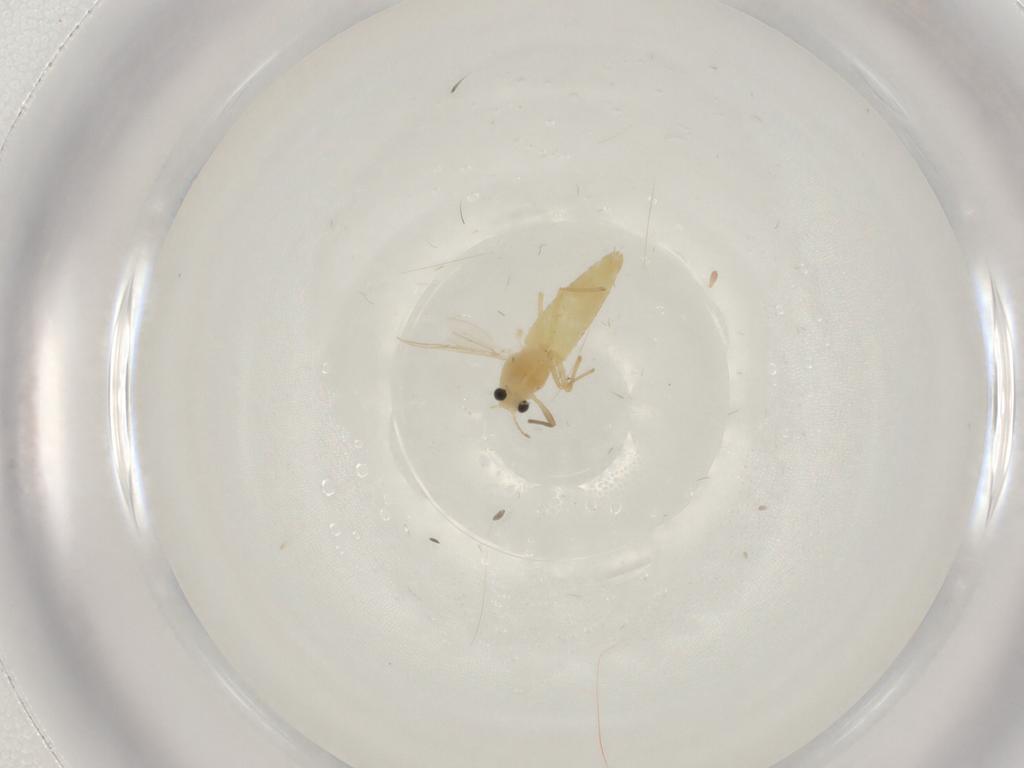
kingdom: Animalia
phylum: Arthropoda
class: Insecta
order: Diptera
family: Chironomidae
